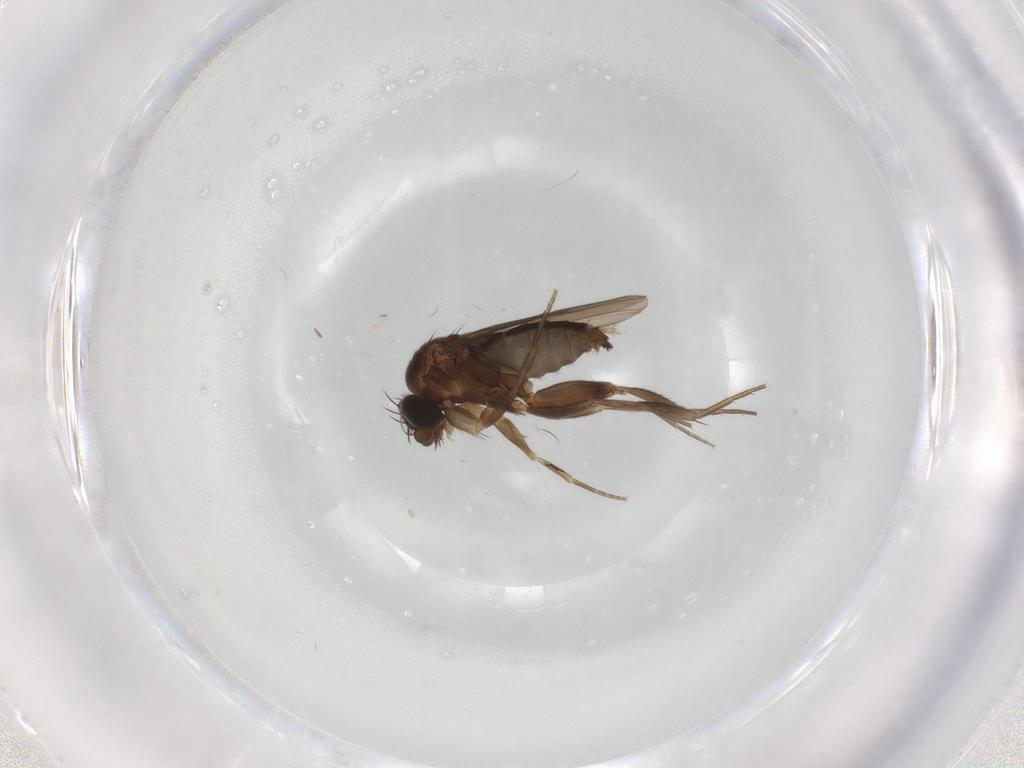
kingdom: Animalia
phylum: Arthropoda
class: Insecta
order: Diptera
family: Phoridae
